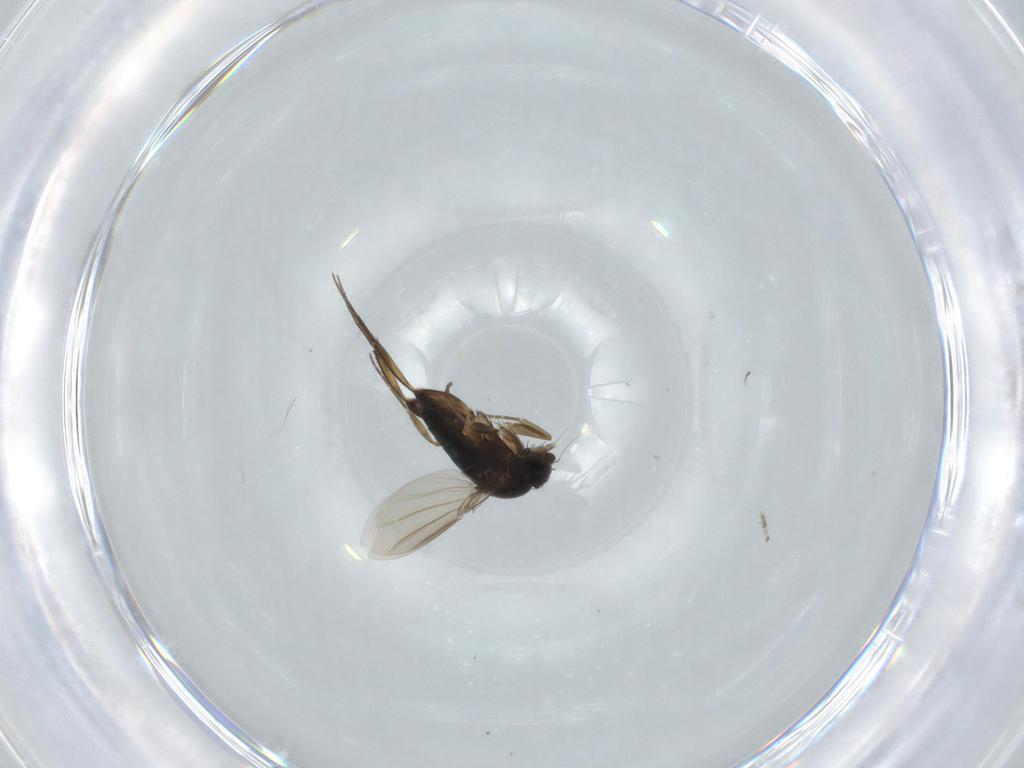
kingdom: Animalia
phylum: Arthropoda
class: Insecta
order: Diptera
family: Phoridae
